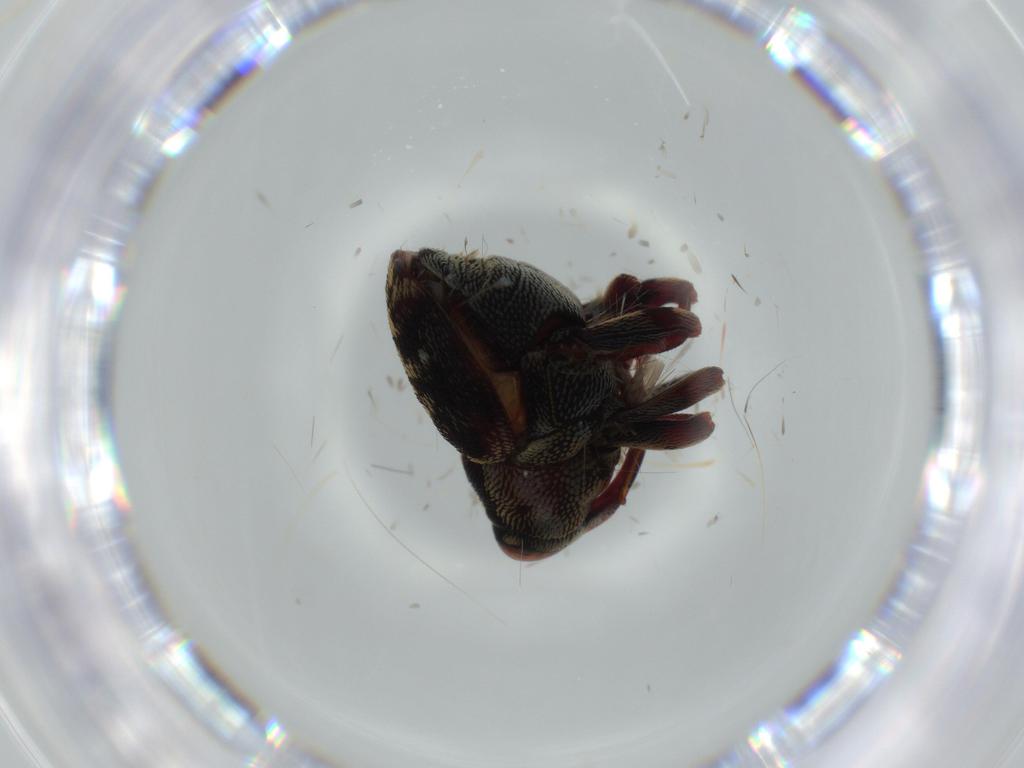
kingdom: Animalia
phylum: Arthropoda
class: Insecta
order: Coleoptera
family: Curculionidae
